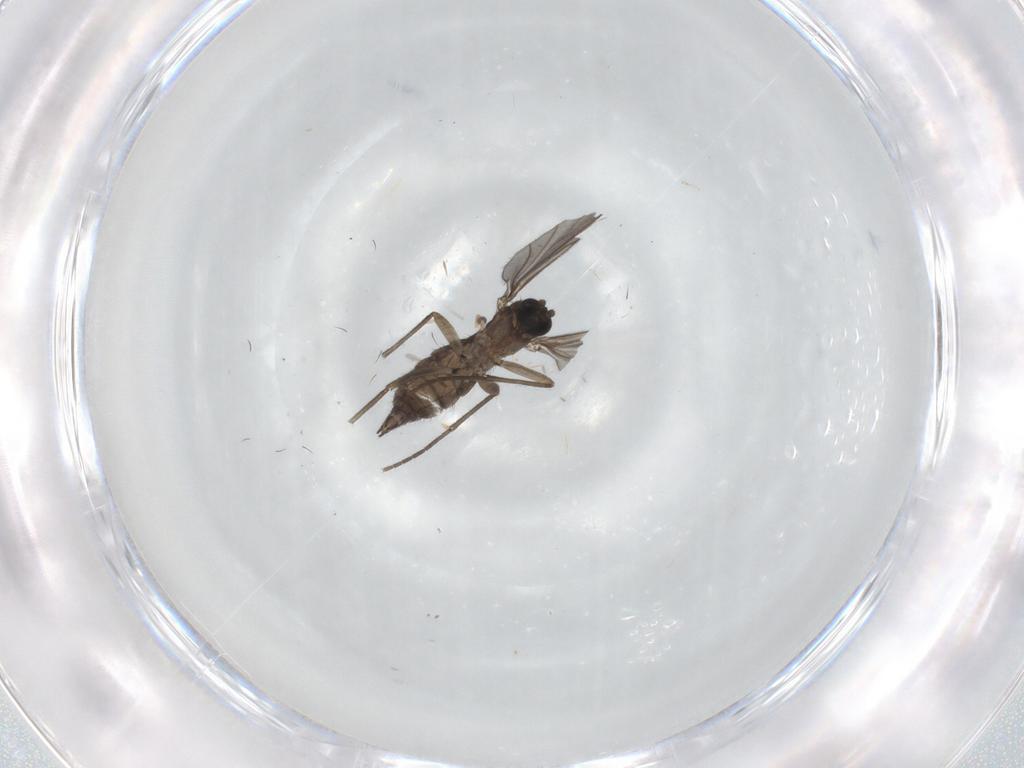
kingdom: Animalia
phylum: Arthropoda
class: Insecta
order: Diptera
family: Sciaridae
